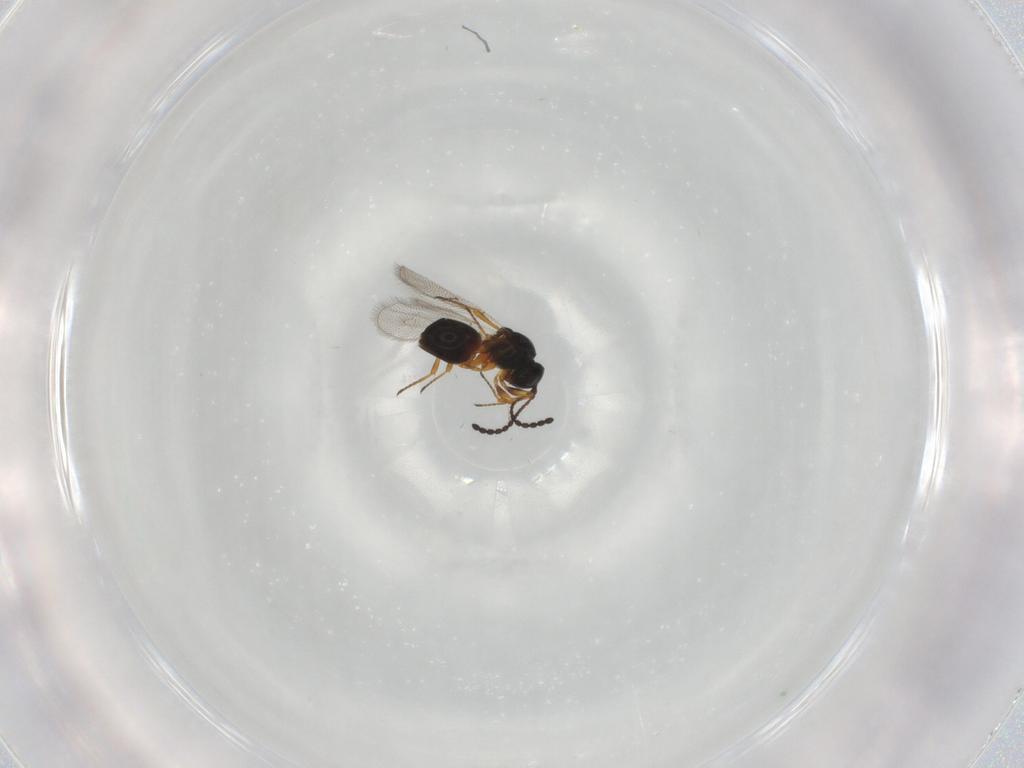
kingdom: Animalia
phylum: Arthropoda
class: Insecta
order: Hymenoptera
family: Figitidae
